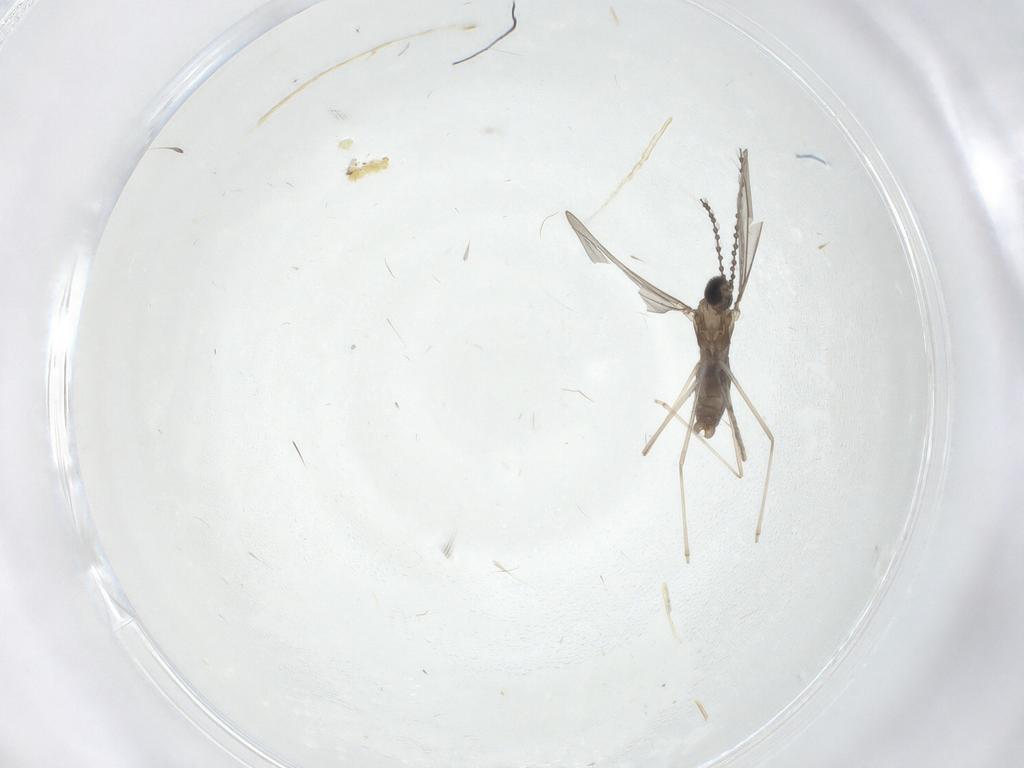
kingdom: Animalia
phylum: Arthropoda
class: Insecta
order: Diptera
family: Cecidomyiidae
